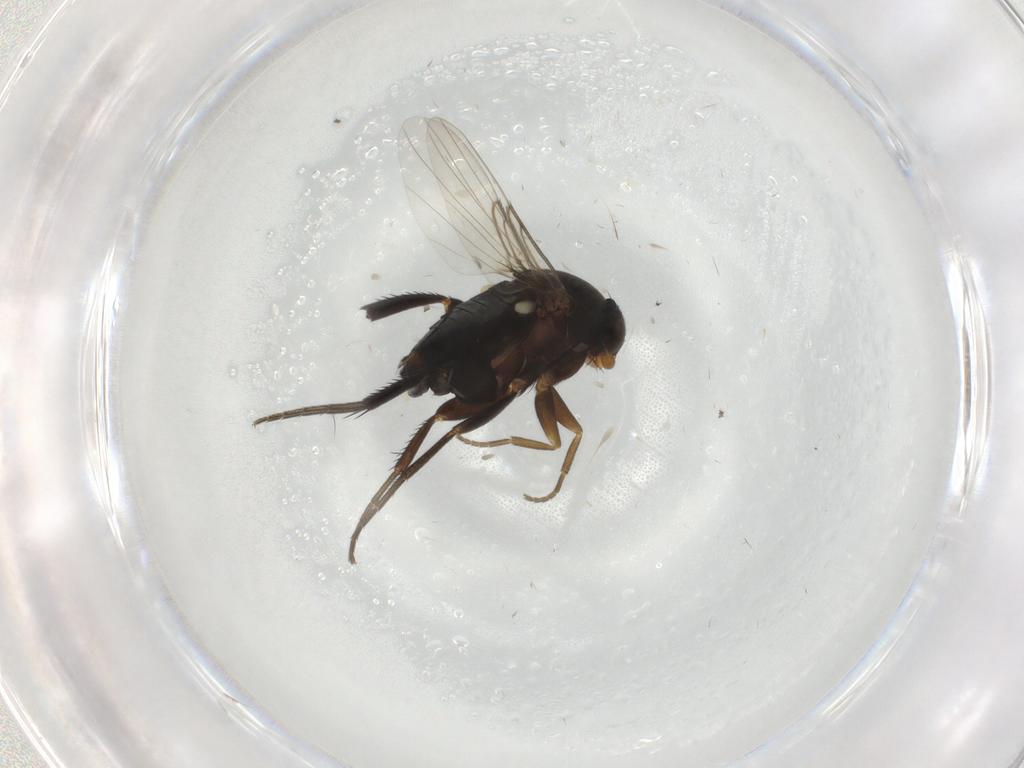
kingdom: Animalia
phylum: Arthropoda
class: Insecta
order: Diptera
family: Phoridae
